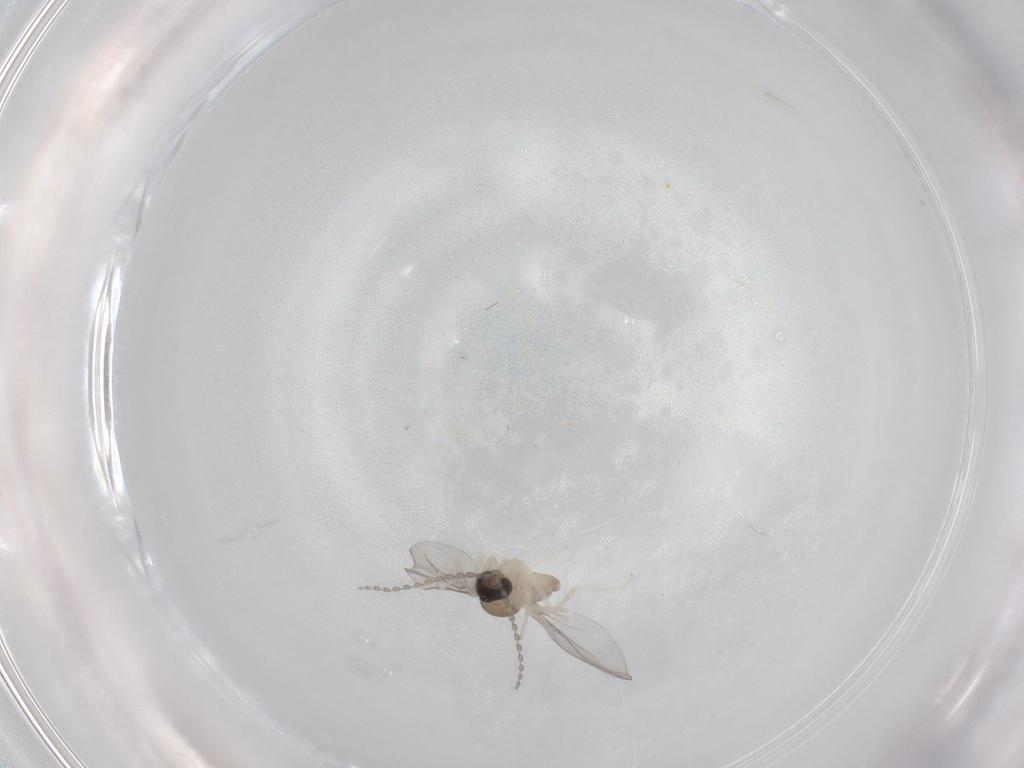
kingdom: Animalia
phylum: Arthropoda
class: Insecta
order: Diptera
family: Cecidomyiidae
